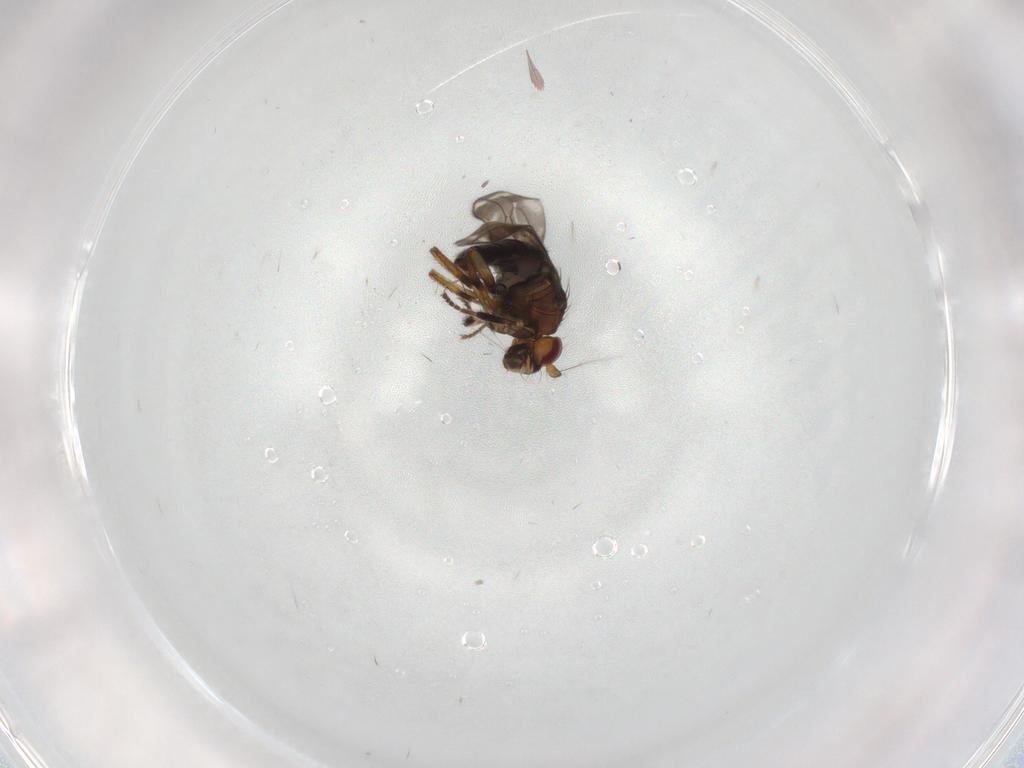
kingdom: Animalia
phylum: Arthropoda
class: Insecta
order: Diptera
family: Sphaeroceridae
